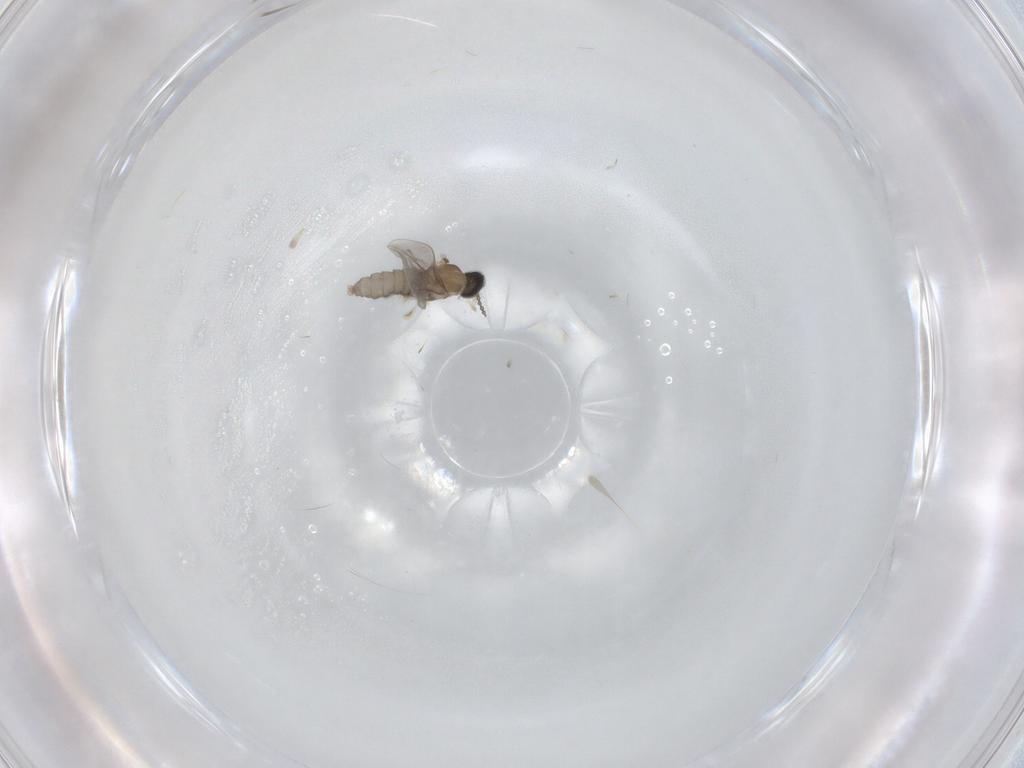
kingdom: Animalia
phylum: Arthropoda
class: Insecta
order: Diptera
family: Cecidomyiidae
